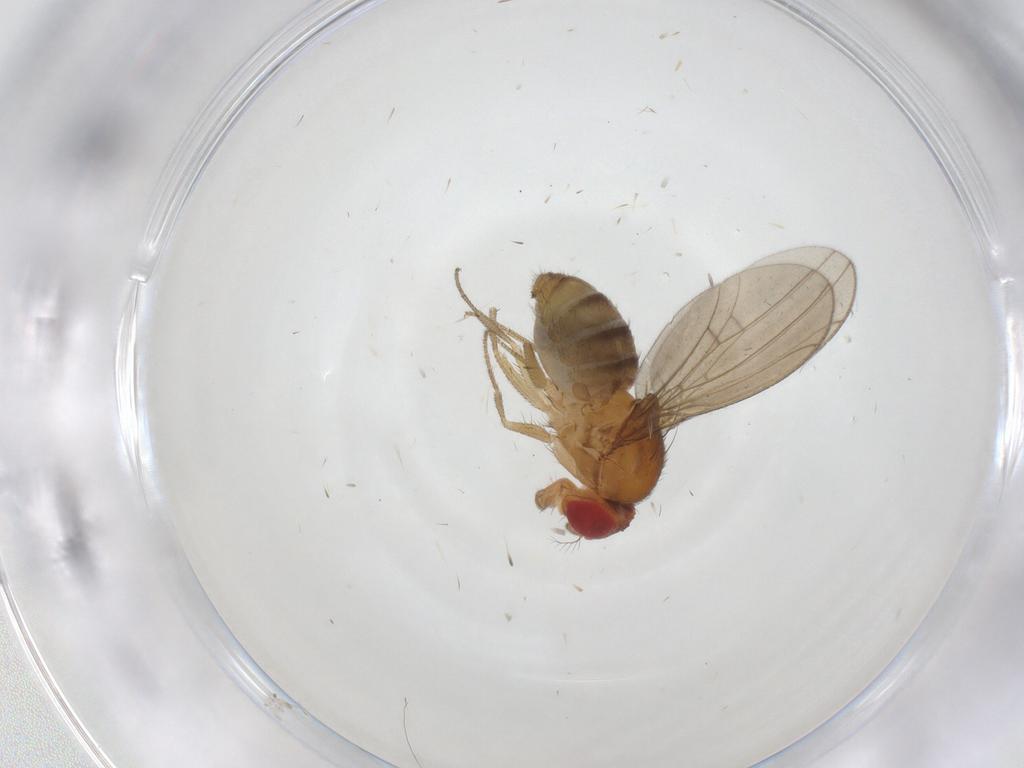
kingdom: Animalia
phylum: Arthropoda
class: Insecta
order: Diptera
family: Drosophilidae
